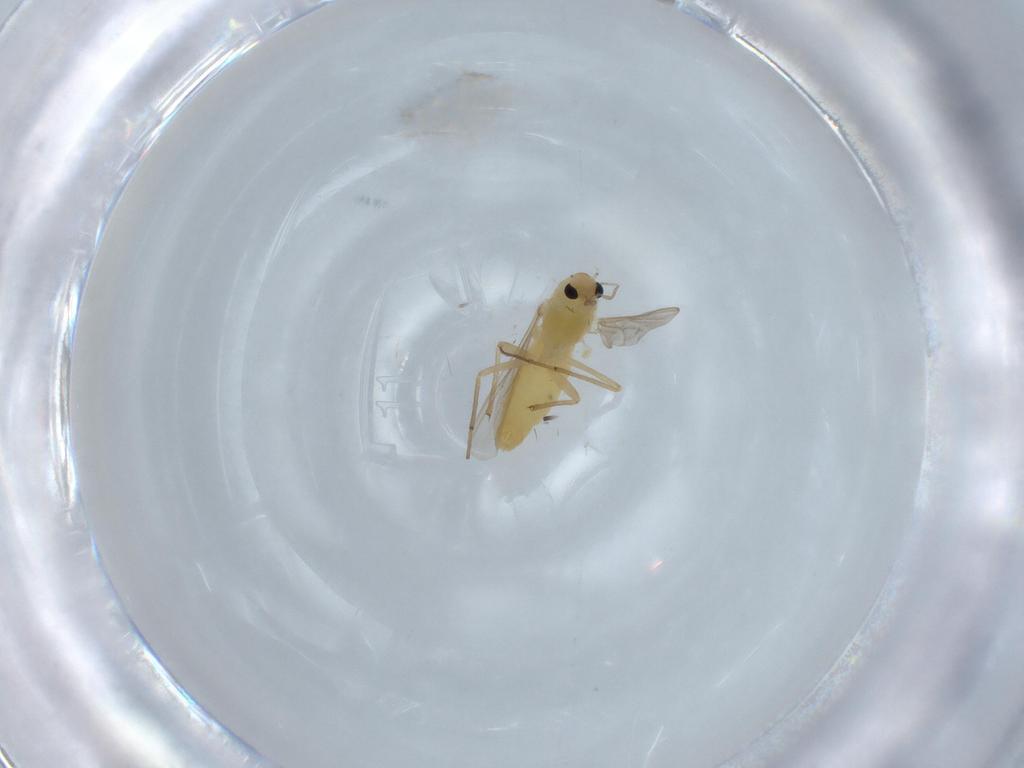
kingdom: Animalia
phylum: Arthropoda
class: Insecta
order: Diptera
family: Chironomidae
